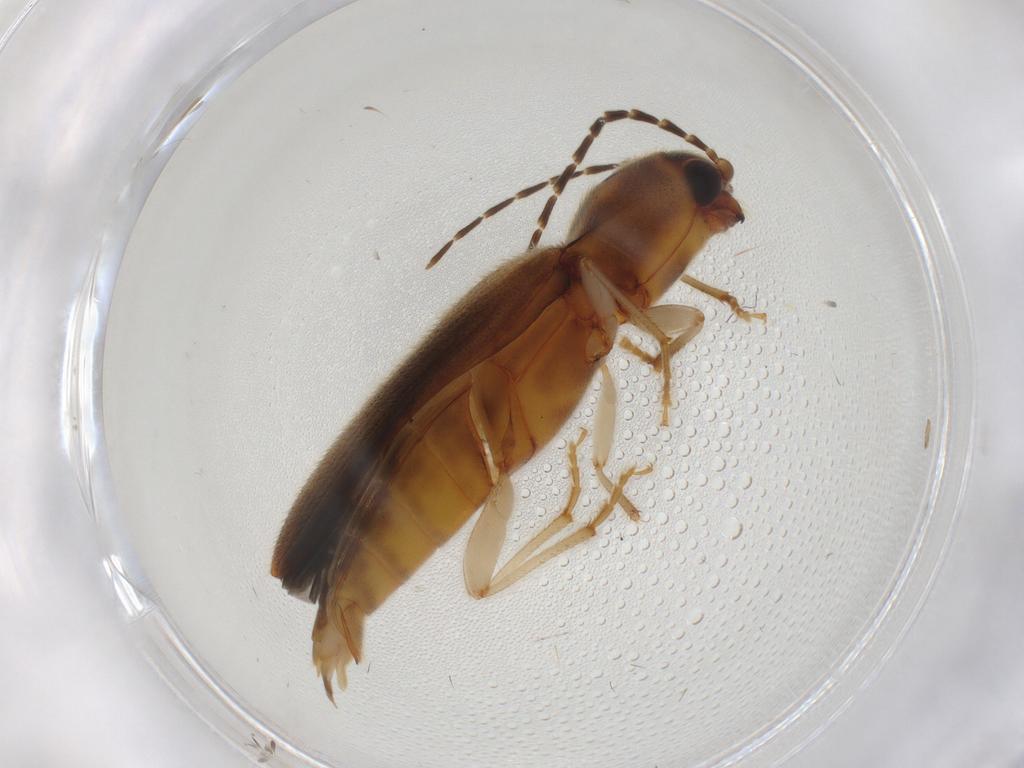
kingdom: Animalia
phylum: Arthropoda
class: Insecta
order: Coleoptera
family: Elateridae
